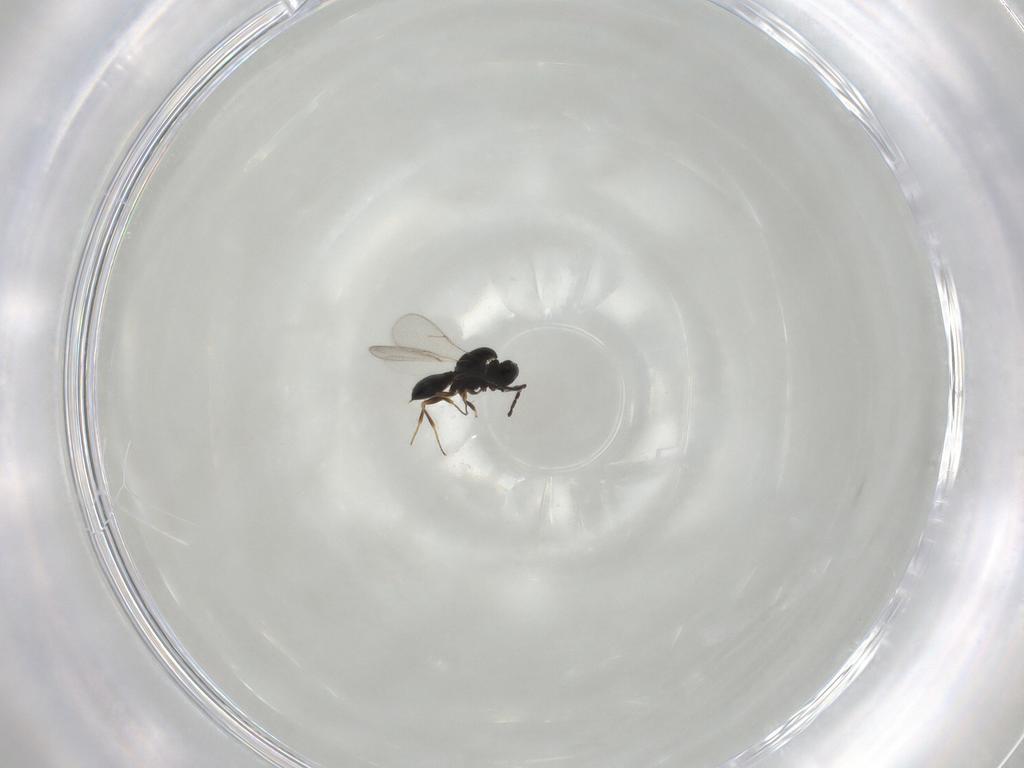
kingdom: Animalia
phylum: Arthropoda
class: Insecta
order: Hymenoptera
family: Scelionidae
